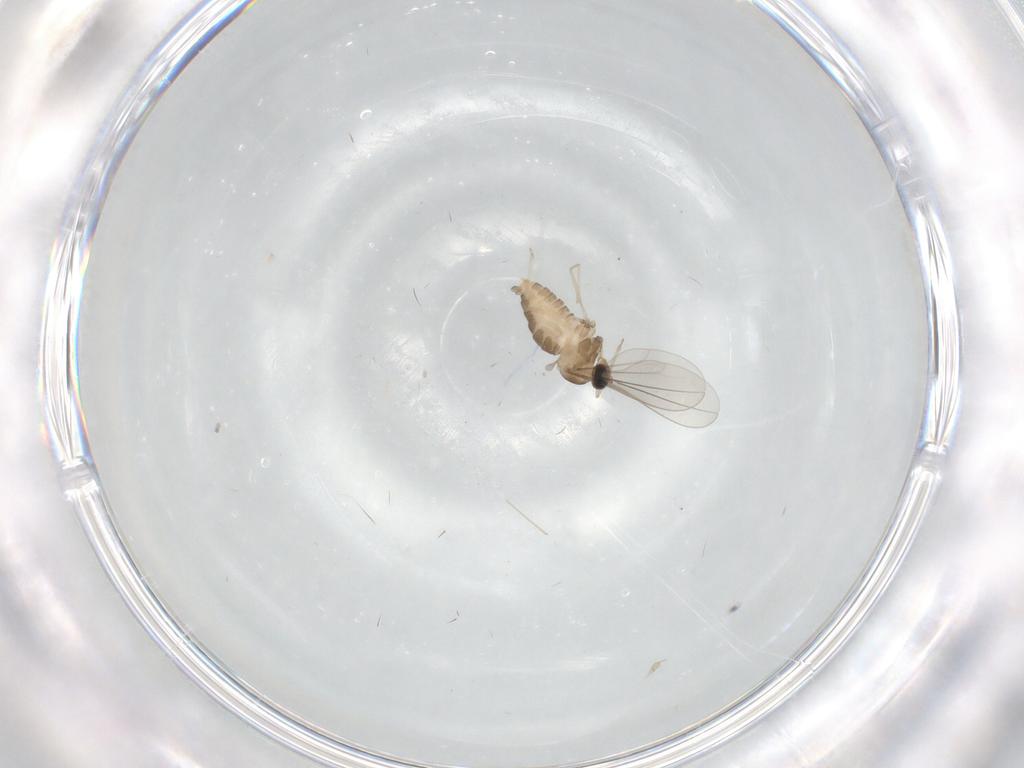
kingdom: Animalia
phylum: Arthropoda
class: Insecta
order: Diptera
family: Cecidomyiidae
